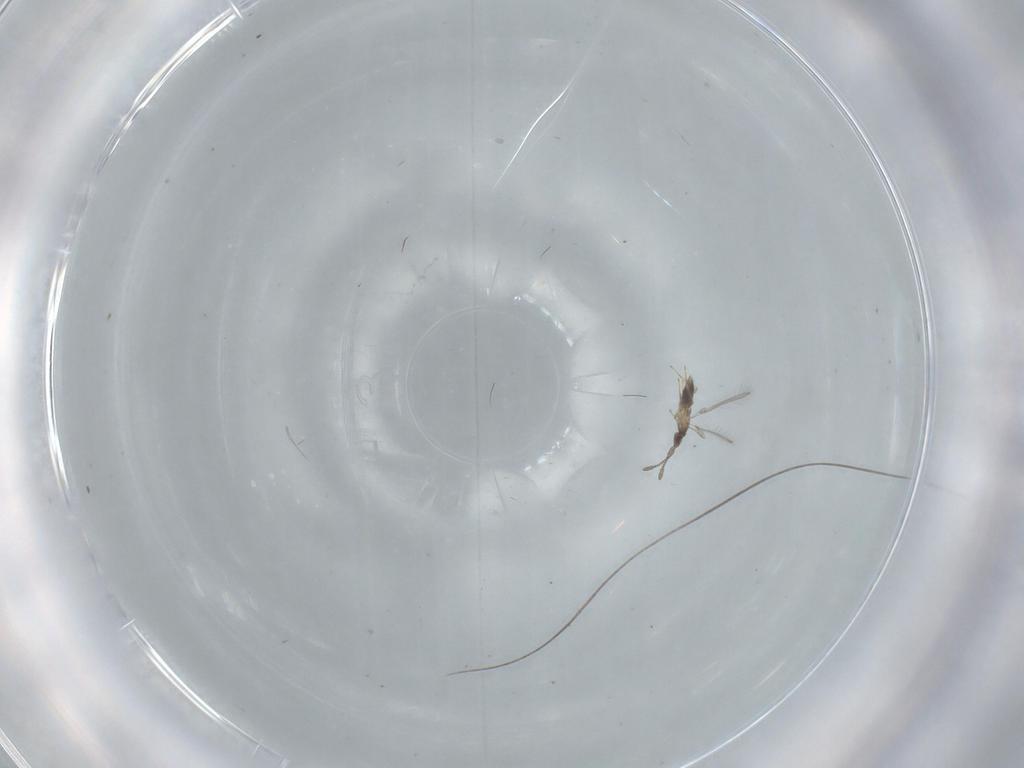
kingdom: Animalia
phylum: Arthropoda
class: Insecta
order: Hymenoptera
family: Mymaridae
